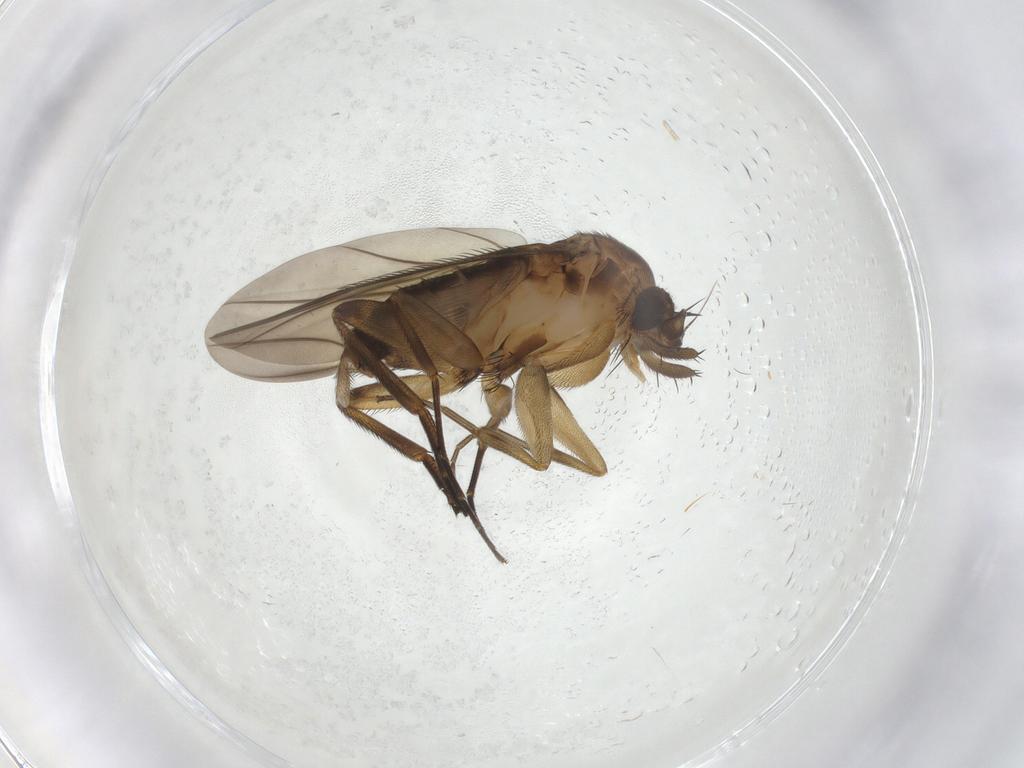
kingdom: Animalia
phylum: Arthropoda
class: Insecta
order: Diptera
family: Phoridae
